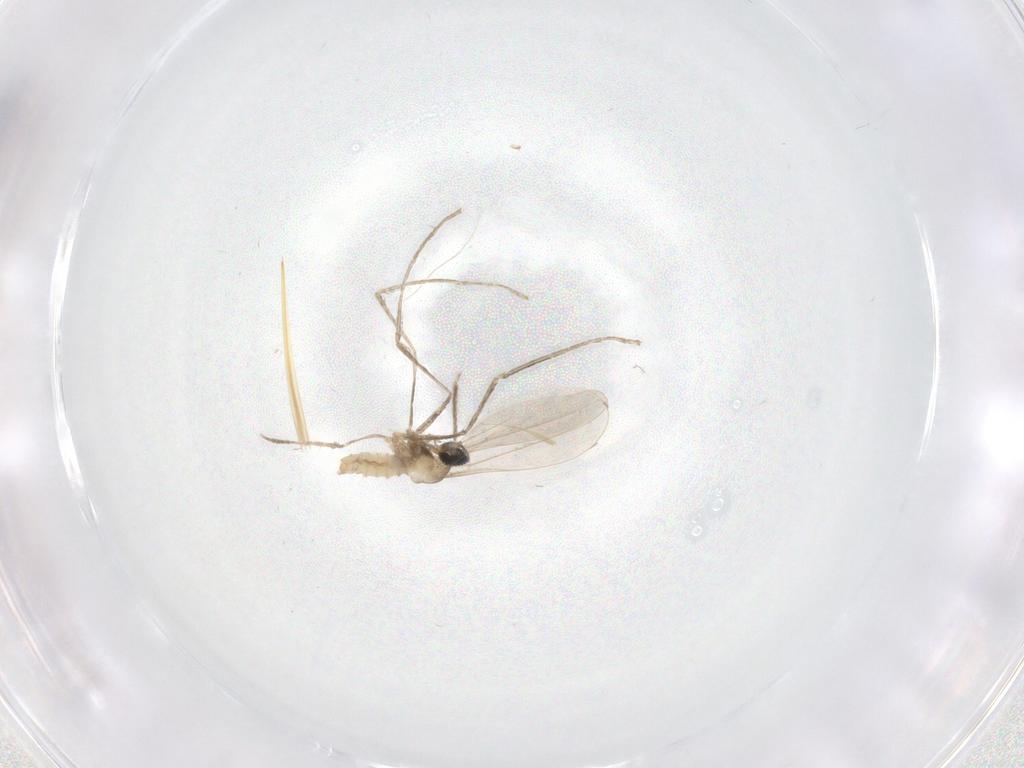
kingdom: Animalia
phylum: Arthropoda
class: Insecta
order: Diptera
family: Cecidomyiidae
